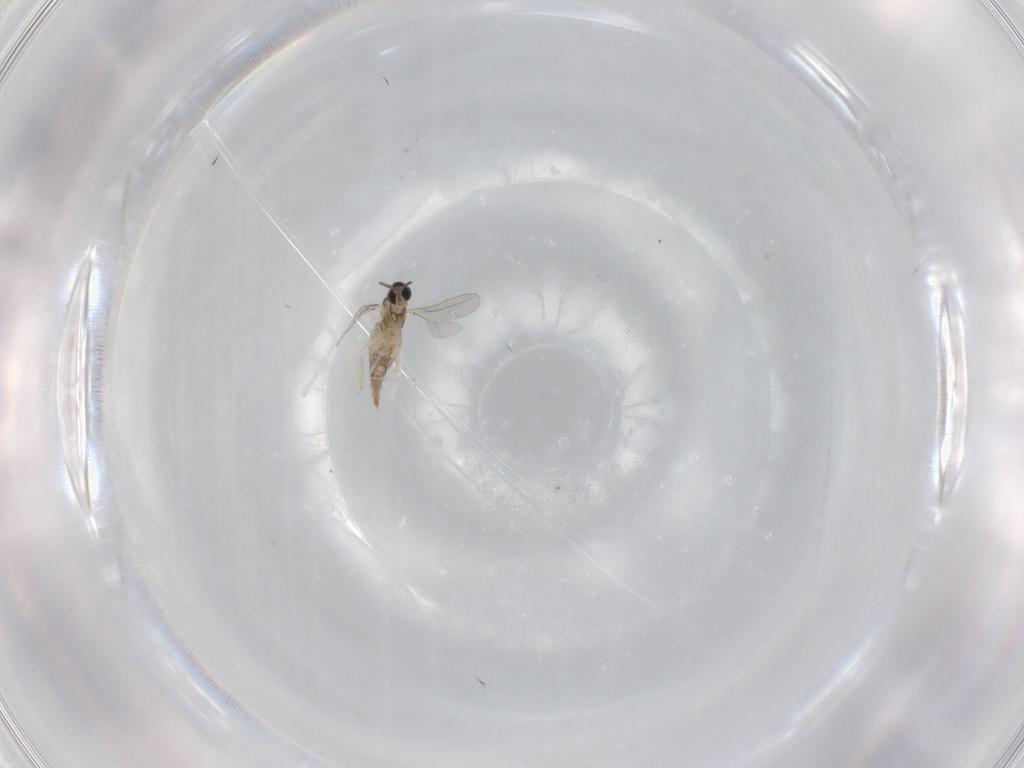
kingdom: Animalia
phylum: Arthropoda
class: Insecta
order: Diptera
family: Cecidomyiidae
